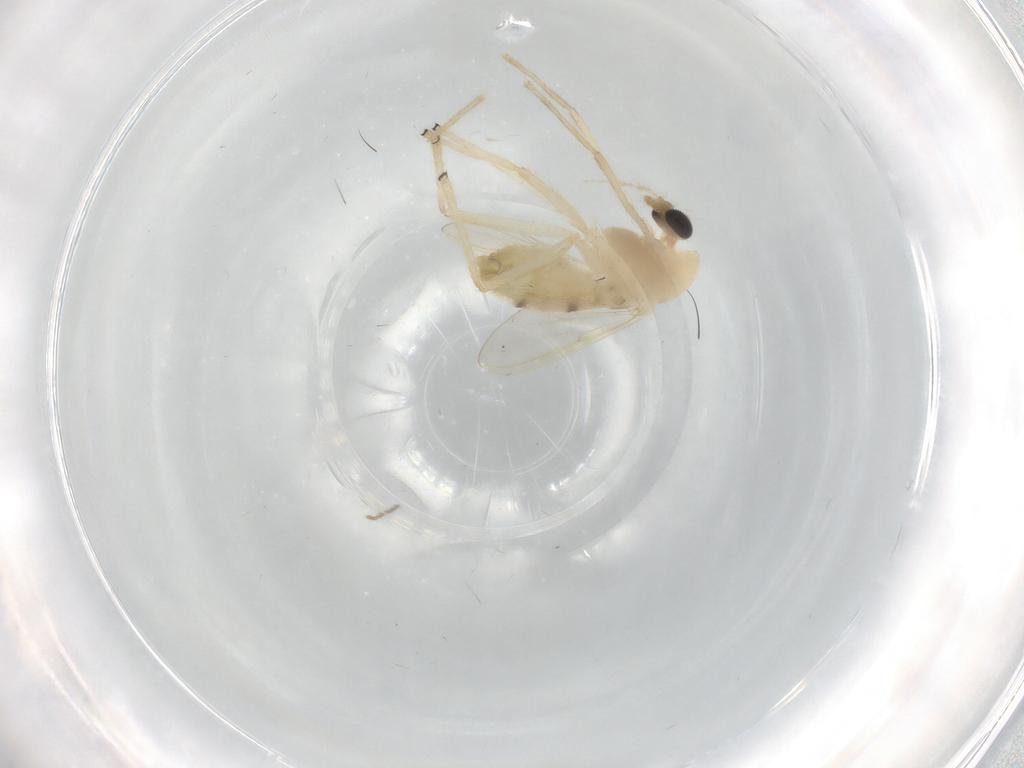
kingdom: Animalia
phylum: Arthropoda
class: Insecta
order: Diptera
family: Chironomidae
